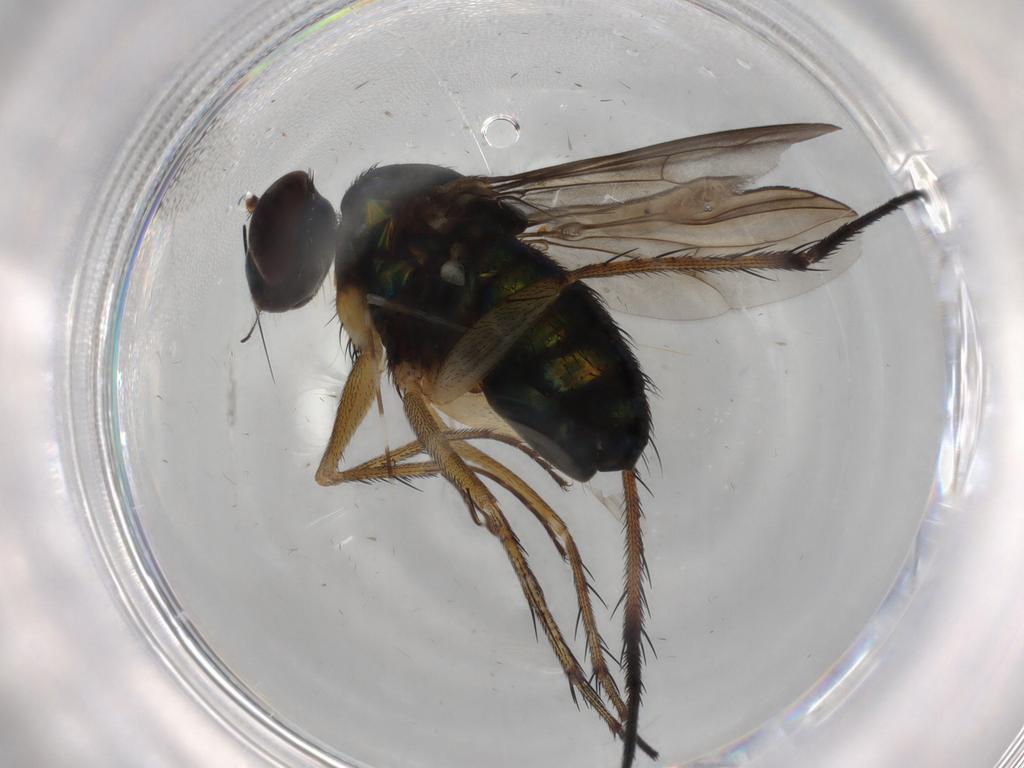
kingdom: Animalia
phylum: Arthropoda
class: Insecta
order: Diptera
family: Dolichopodidae
